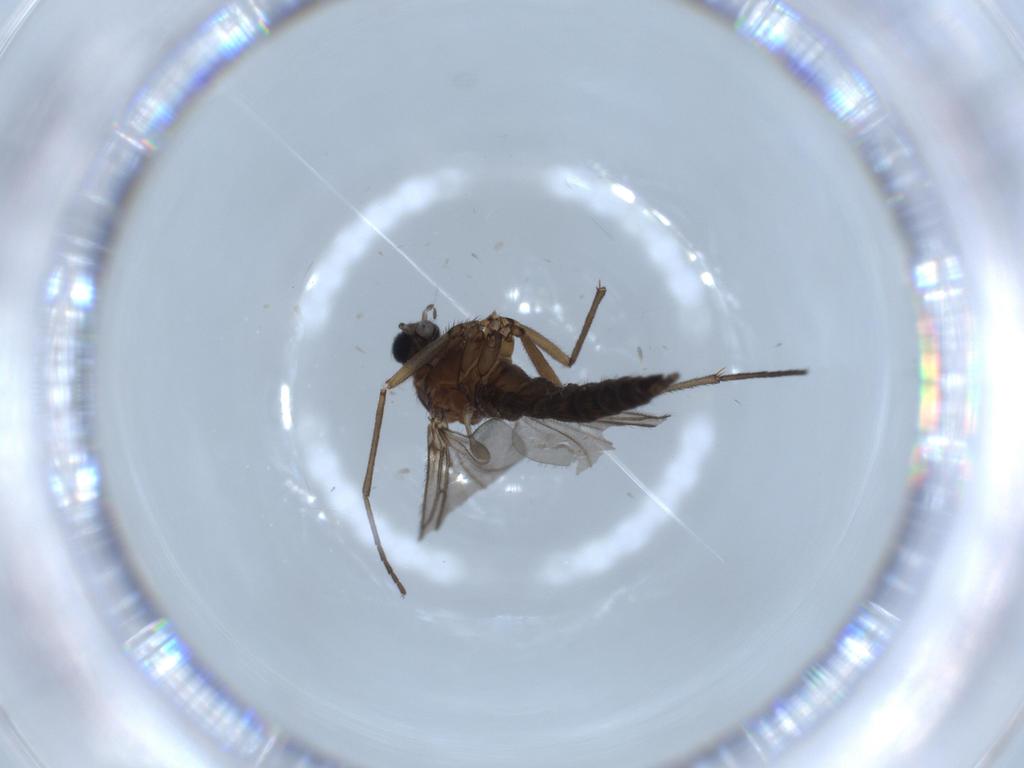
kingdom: Animalia
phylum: Arthropoda
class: Insecta
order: Diptera
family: Sciaridae
